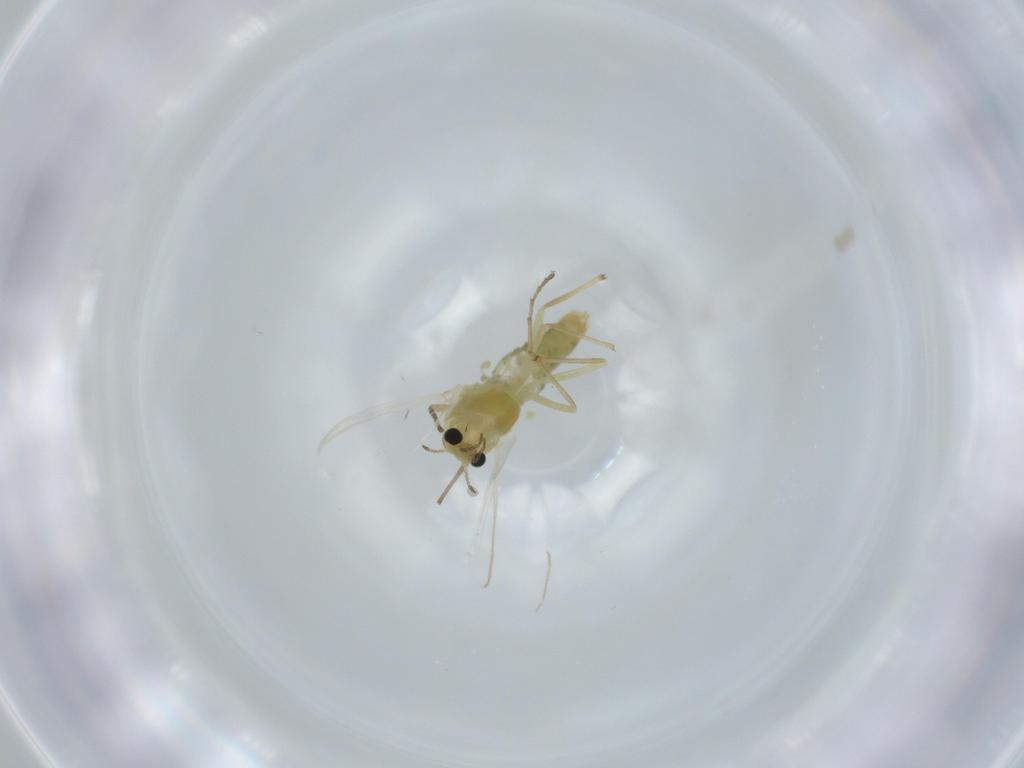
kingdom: Animalia
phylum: Arthropoda
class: Insecta
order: Diptera
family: Chironomidae
